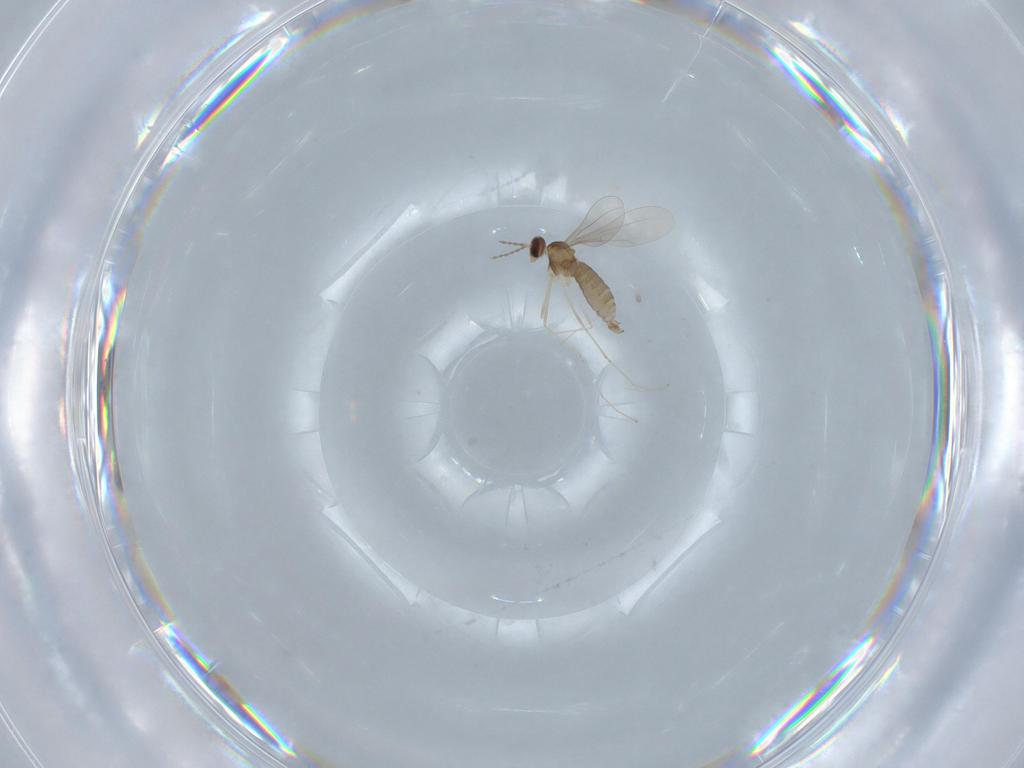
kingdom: Animalia
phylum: Arthropoda
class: Insecta
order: Diptera
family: Cecidomyiidae
